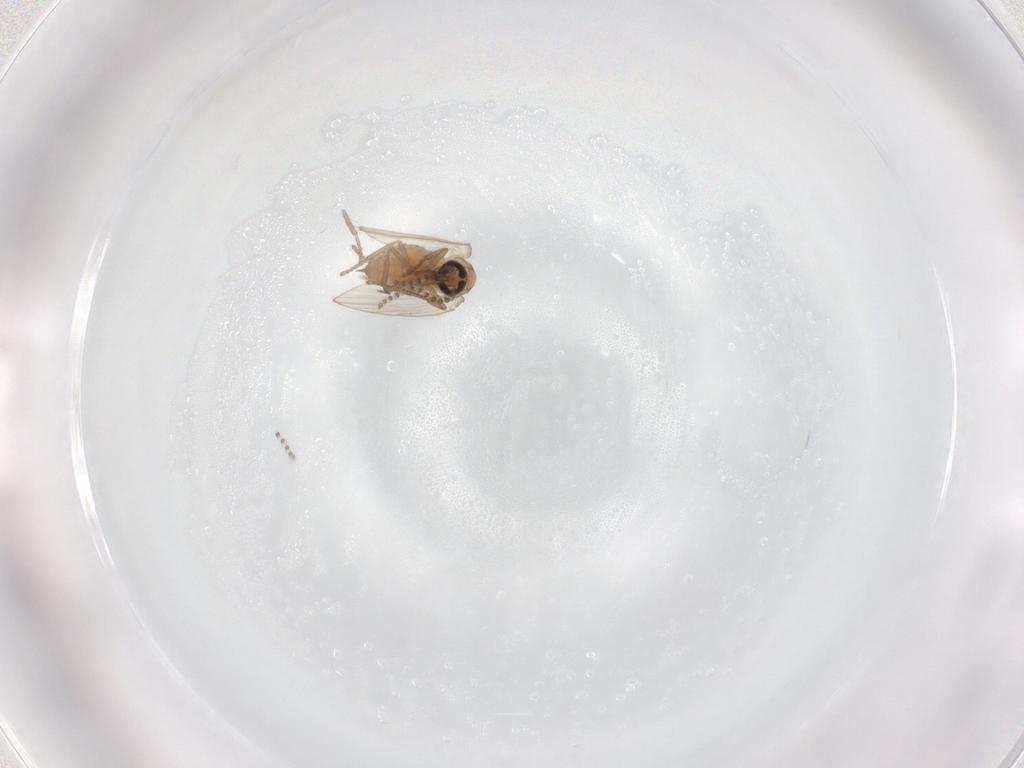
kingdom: Animalia
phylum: Arthropoda
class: Insecta
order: Diptera
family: Psychodidae
